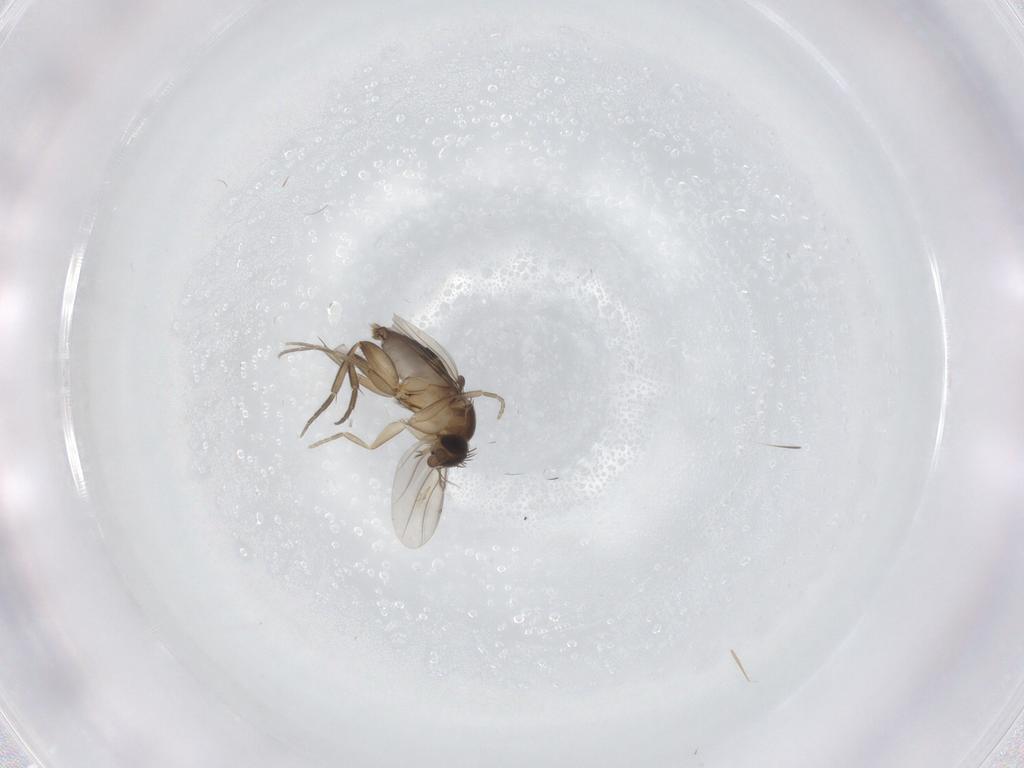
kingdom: Animalia
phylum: Arthropoda
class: Insecta
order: Diptera
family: Phoridae
